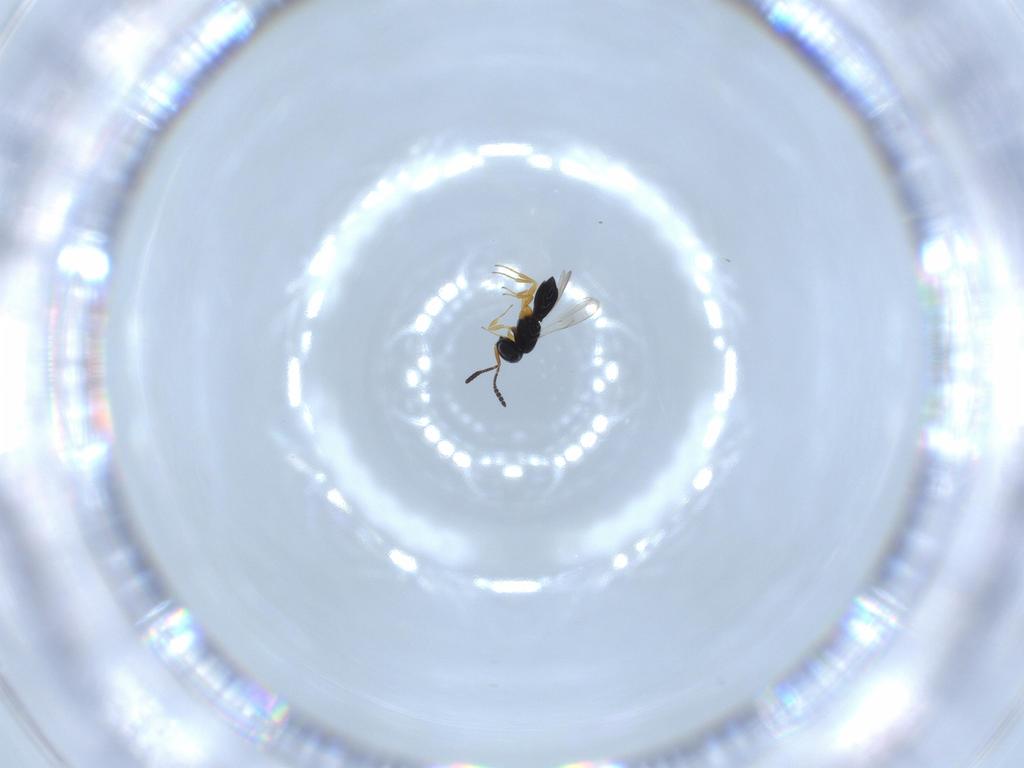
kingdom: Animalia
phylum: Arthropoda
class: Insecta
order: Hymenoptera
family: Scelionidae
